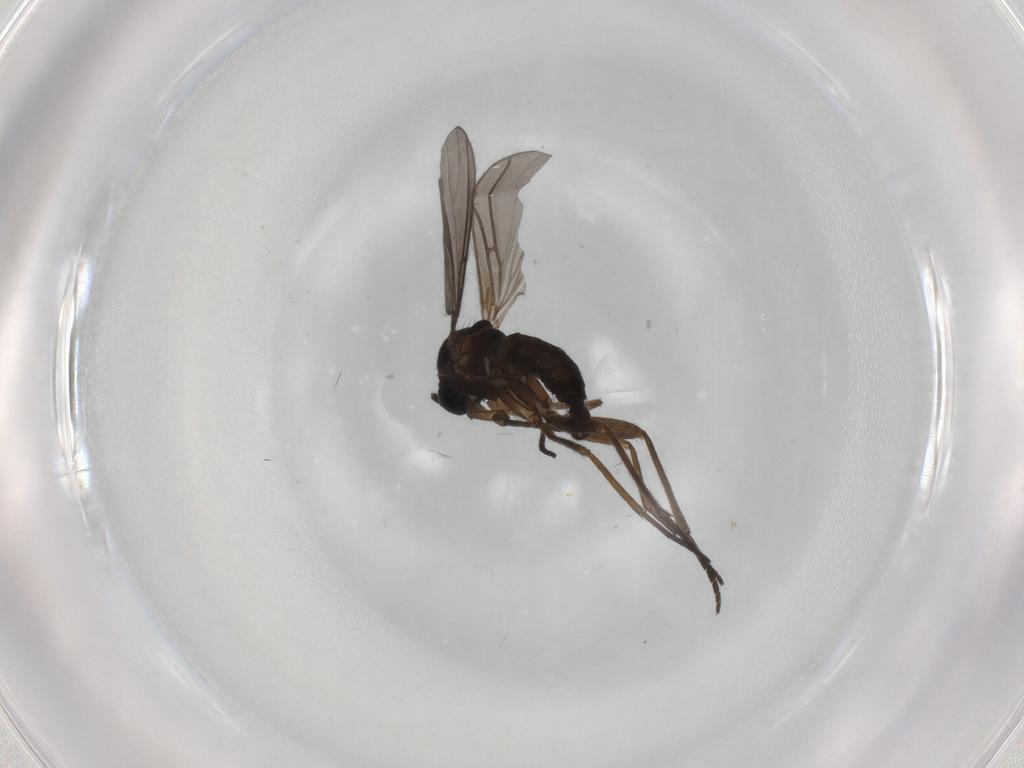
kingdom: Animalia
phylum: Arthropoda
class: Insecta
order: Diptera
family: Sciaridae
